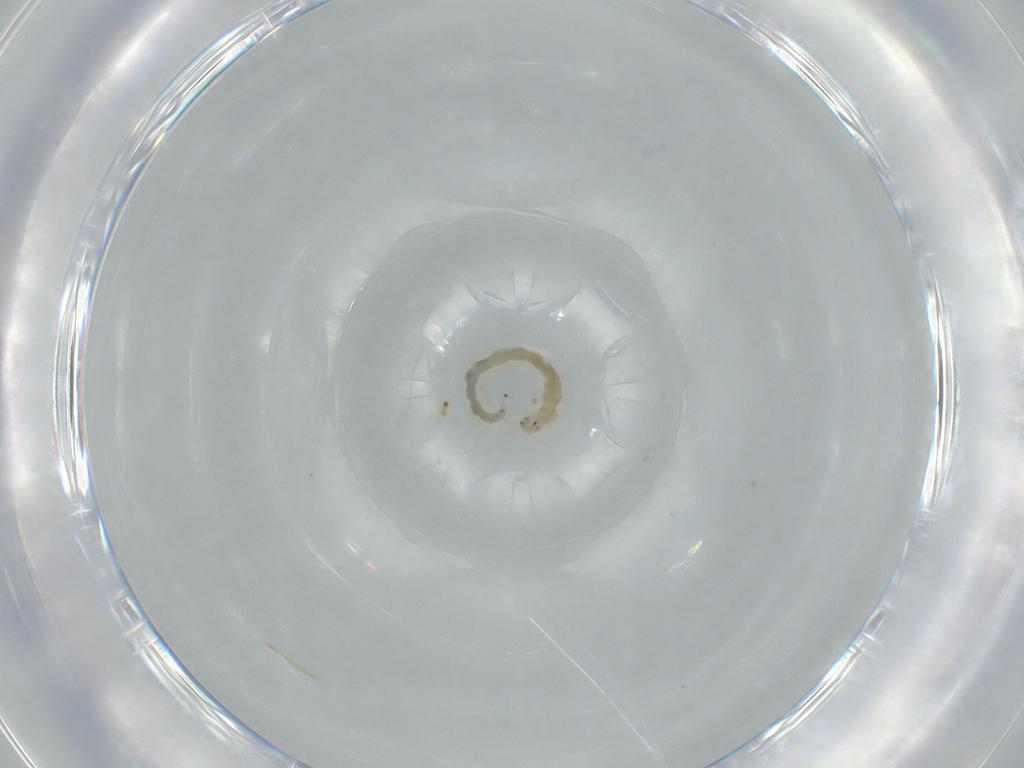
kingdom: Animalia
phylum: Arthropoda
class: Insecta
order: Diptera
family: Chironomidae
